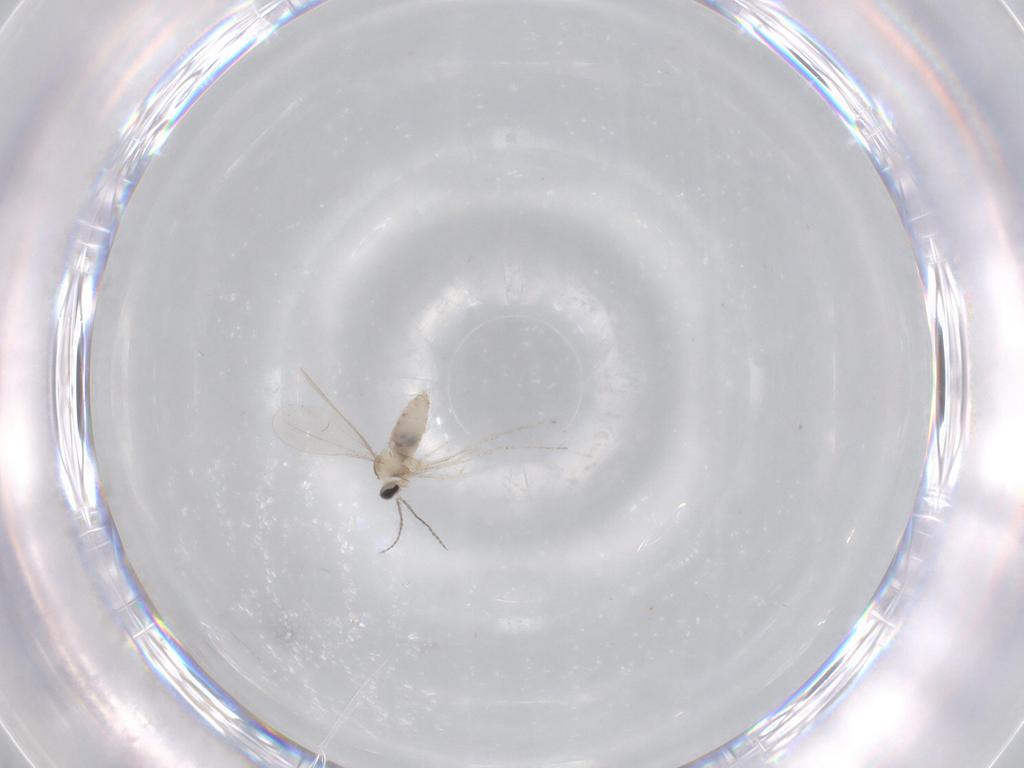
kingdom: Animalia
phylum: Arthropoda
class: Insecta
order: Diptera
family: Cecidomyiidae
